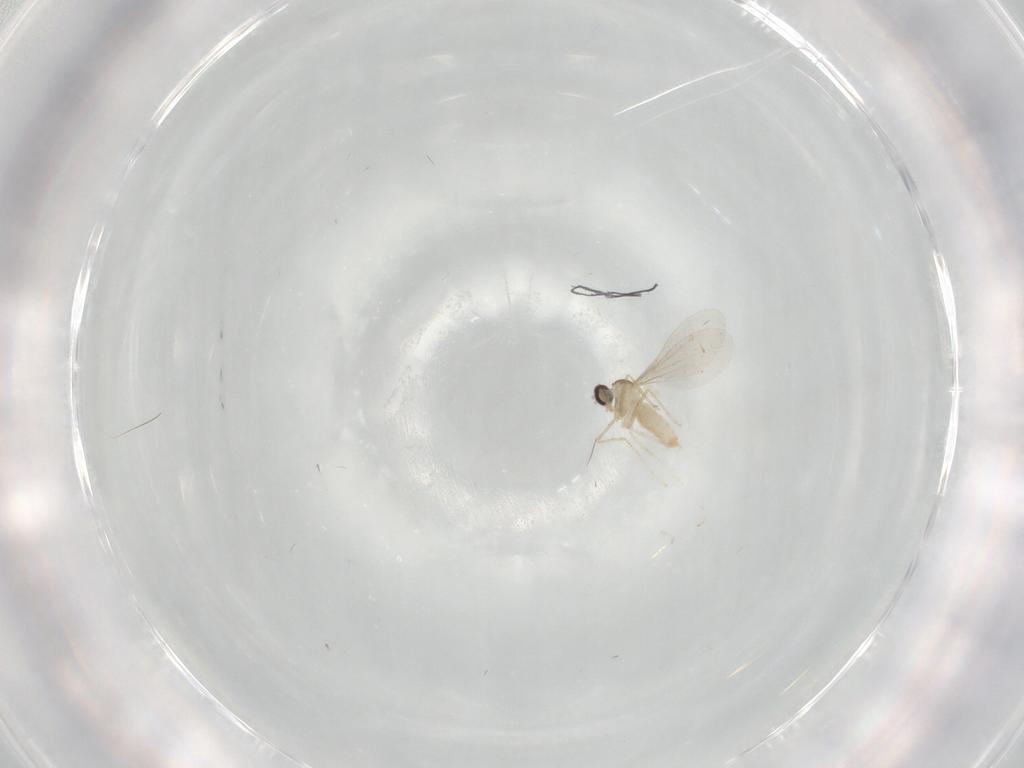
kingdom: Animalia
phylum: Arthropoda
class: Insecta
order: Diptera
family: Cecidomyiidae
